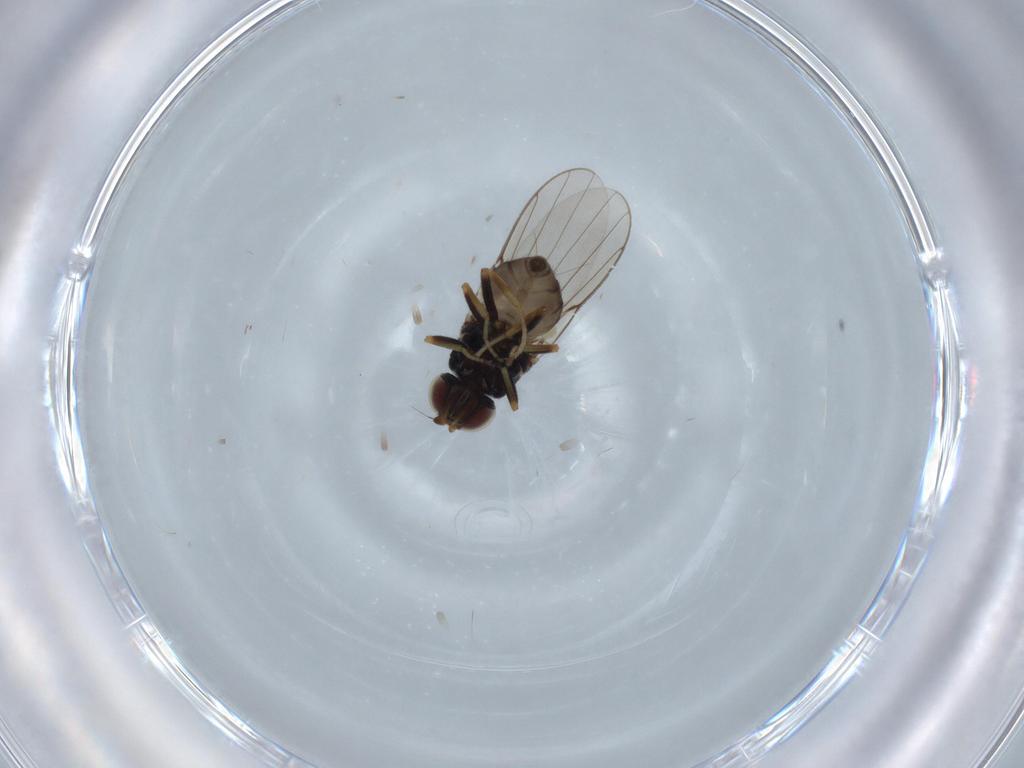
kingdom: Animalia
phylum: Arthropoda
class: Insecta
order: Diptera
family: Chloropidae
